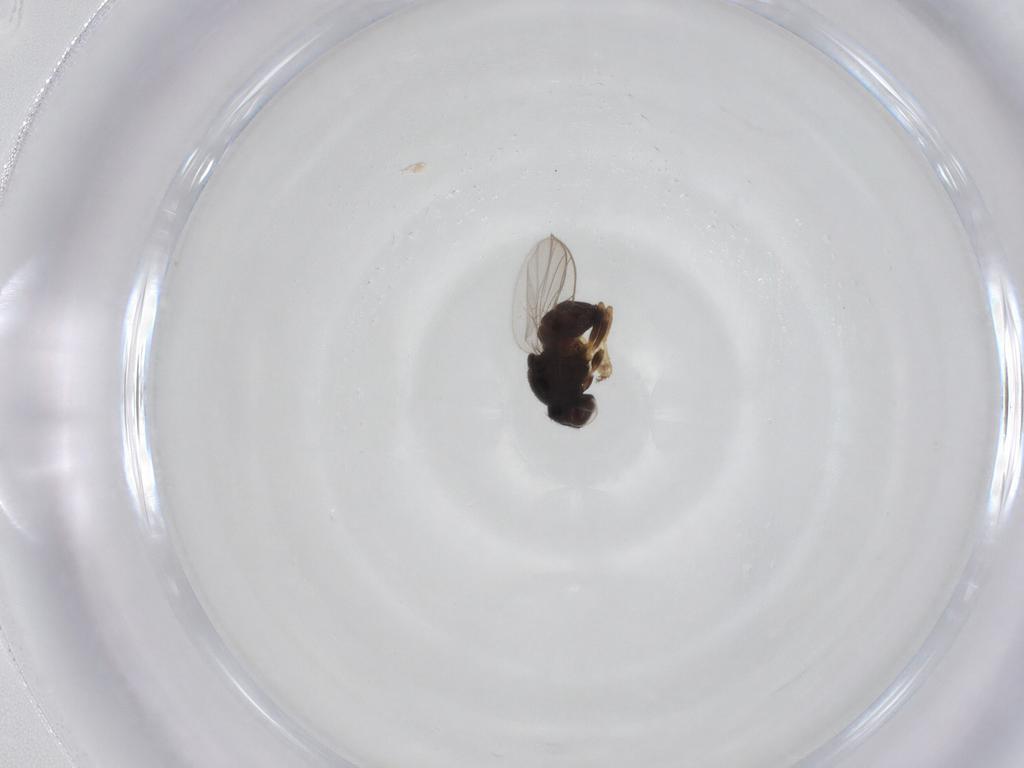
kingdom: Animalia
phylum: Arthropoda
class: Insecta
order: Diptera
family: Chloropidae
